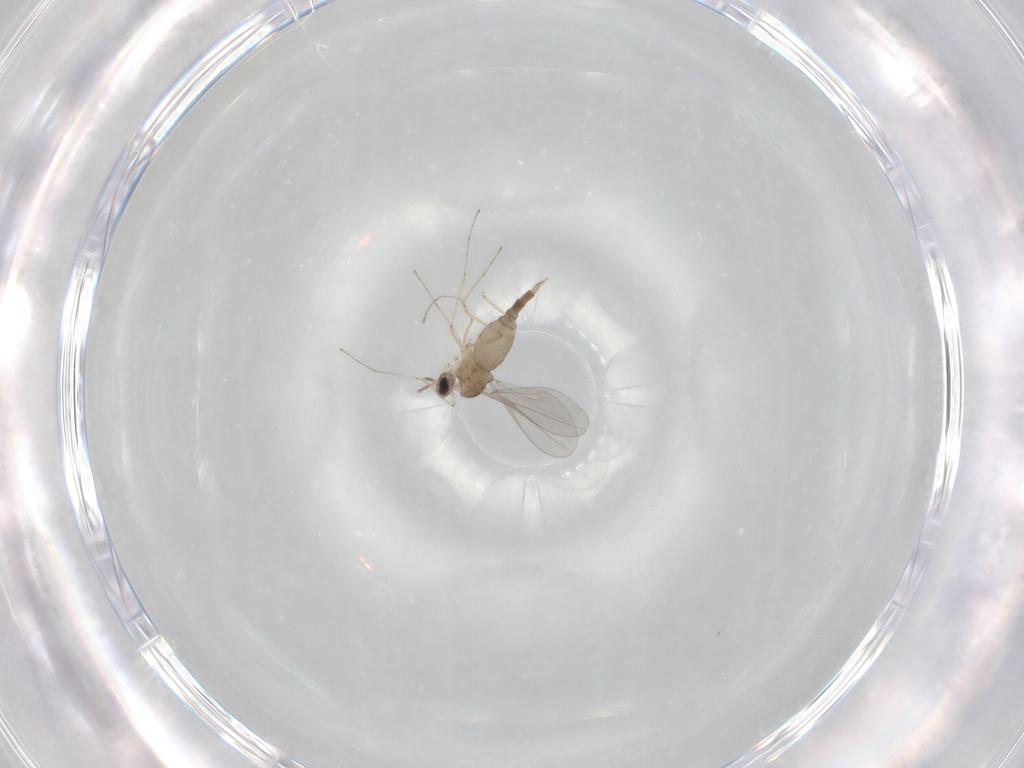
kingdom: Animalia
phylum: Arthropoda
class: Insecta
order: Diptera
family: Cecidomyiidae
